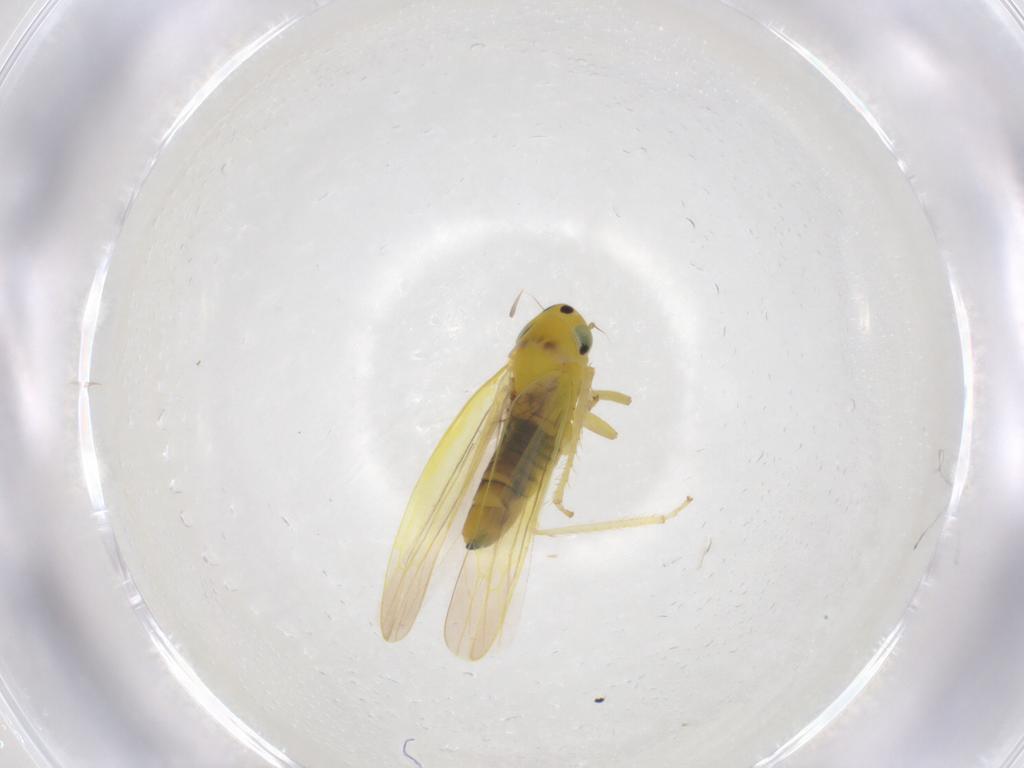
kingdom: Animalia
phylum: Arthropoda
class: Insecta
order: Hemiptera
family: Cicadellidae
